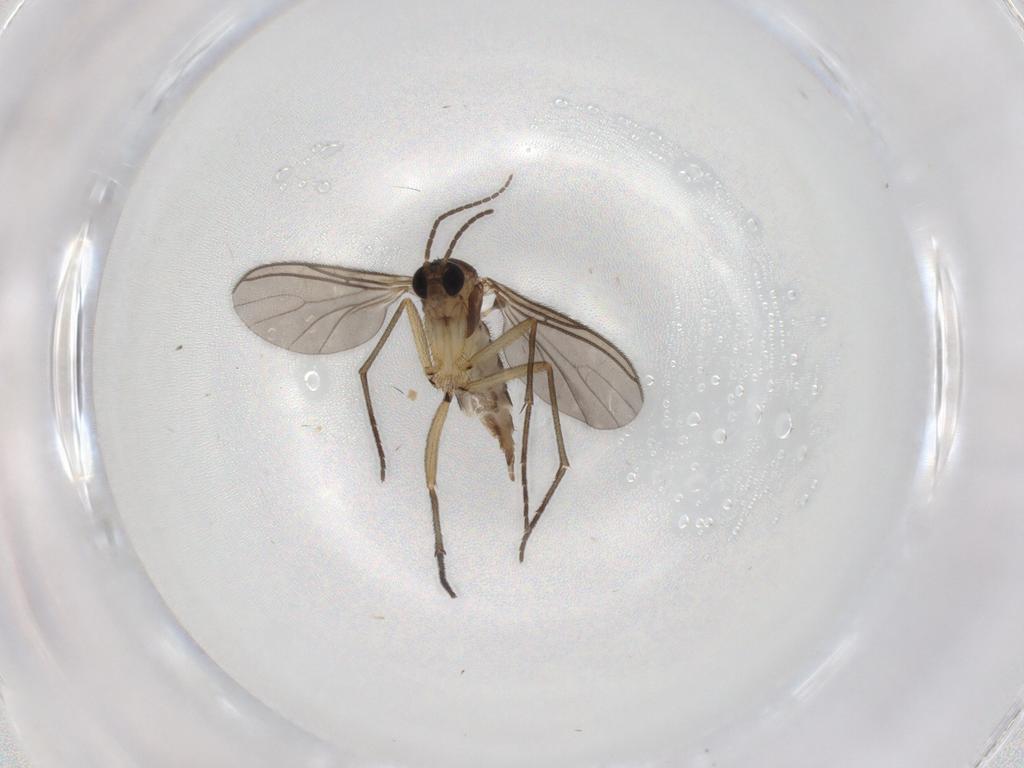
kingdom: Animalia
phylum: Arthropoda
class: Insecta
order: Diptera
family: Sciaridae
